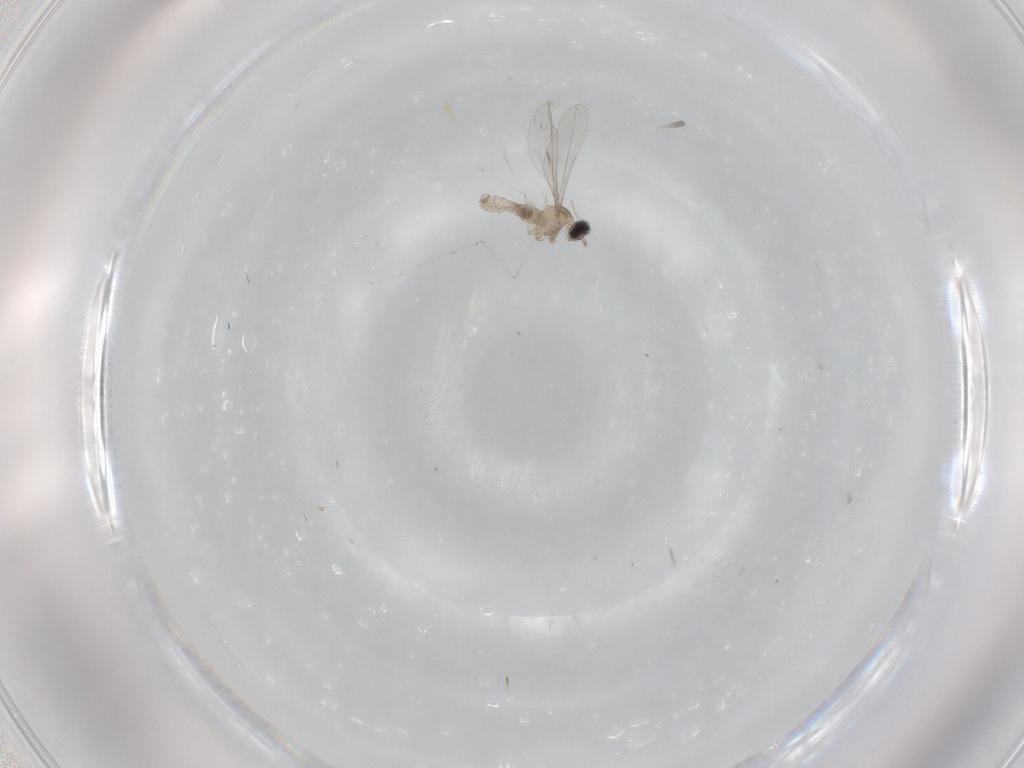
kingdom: Animalia
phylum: Arthropoda
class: Insecta
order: Diptera
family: Cecidomyiidae
